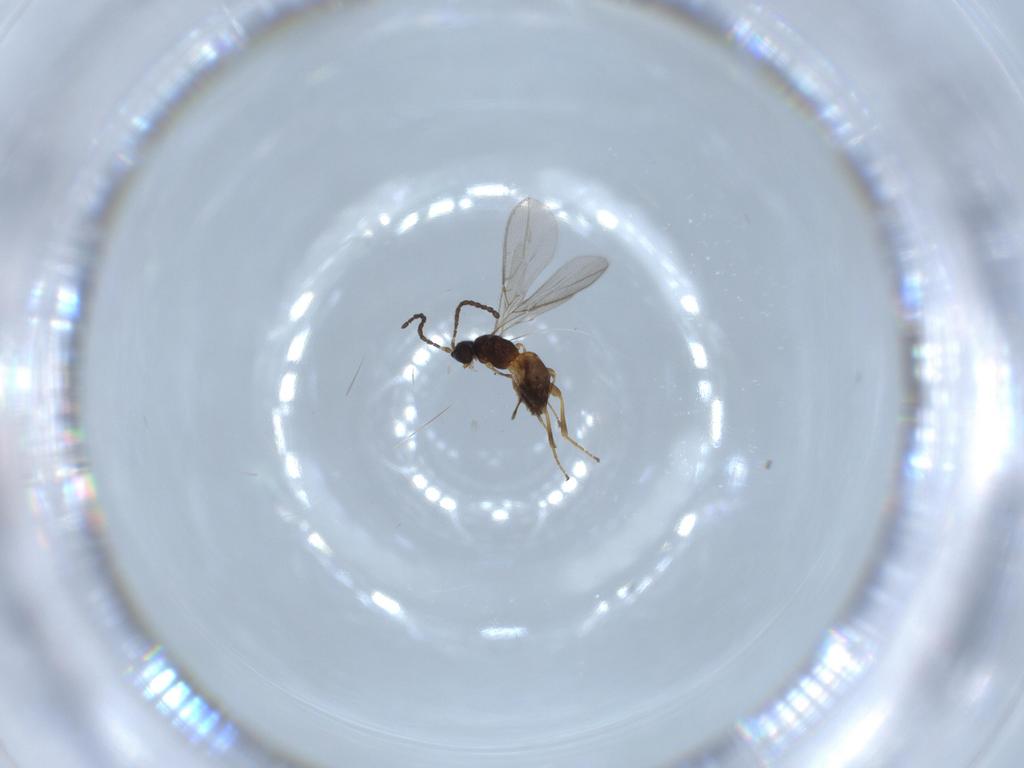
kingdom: Animalia
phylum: Arthropoda
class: Insecta
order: Hymenoptera
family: Braconidae
